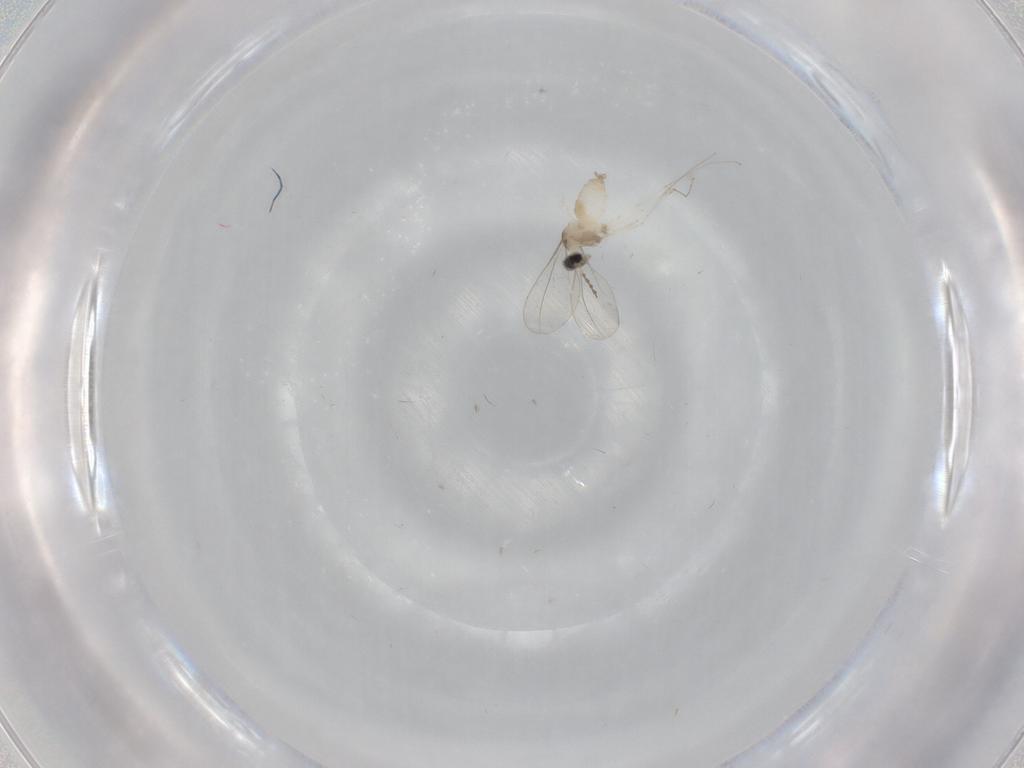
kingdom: Animalia
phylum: Arthropoda
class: Insecta
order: Diptera
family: Cecidomyiidae
